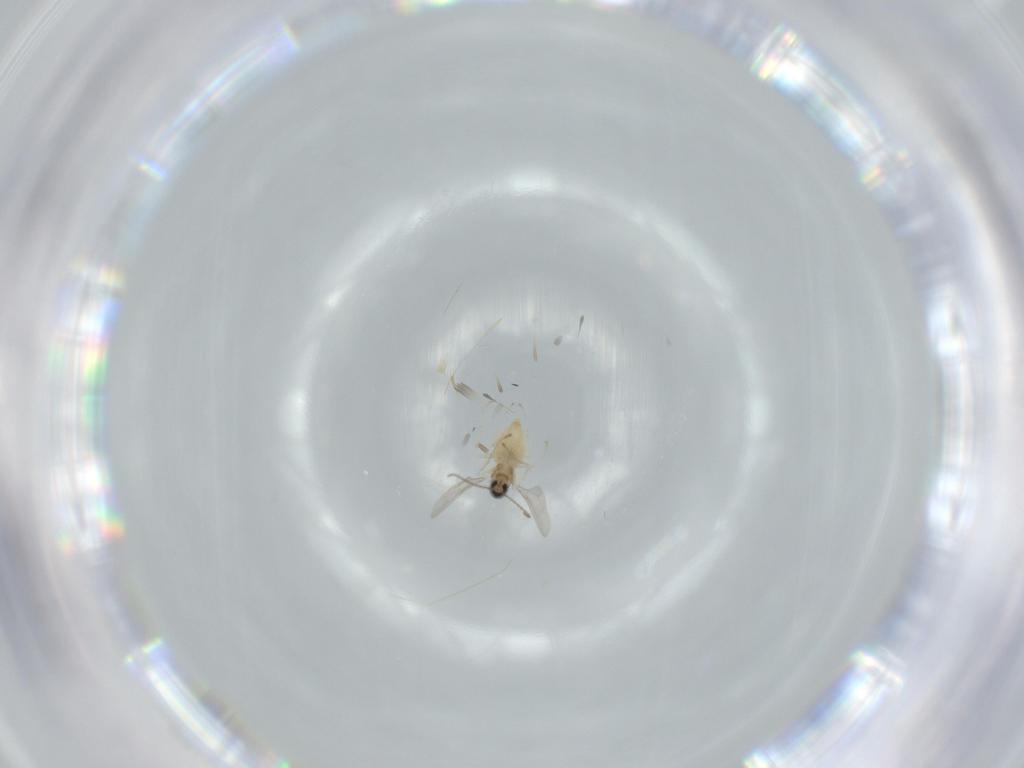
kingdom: Animalia
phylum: Arthropoda
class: Insecta
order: Diptera
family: Cecidomyiidae
